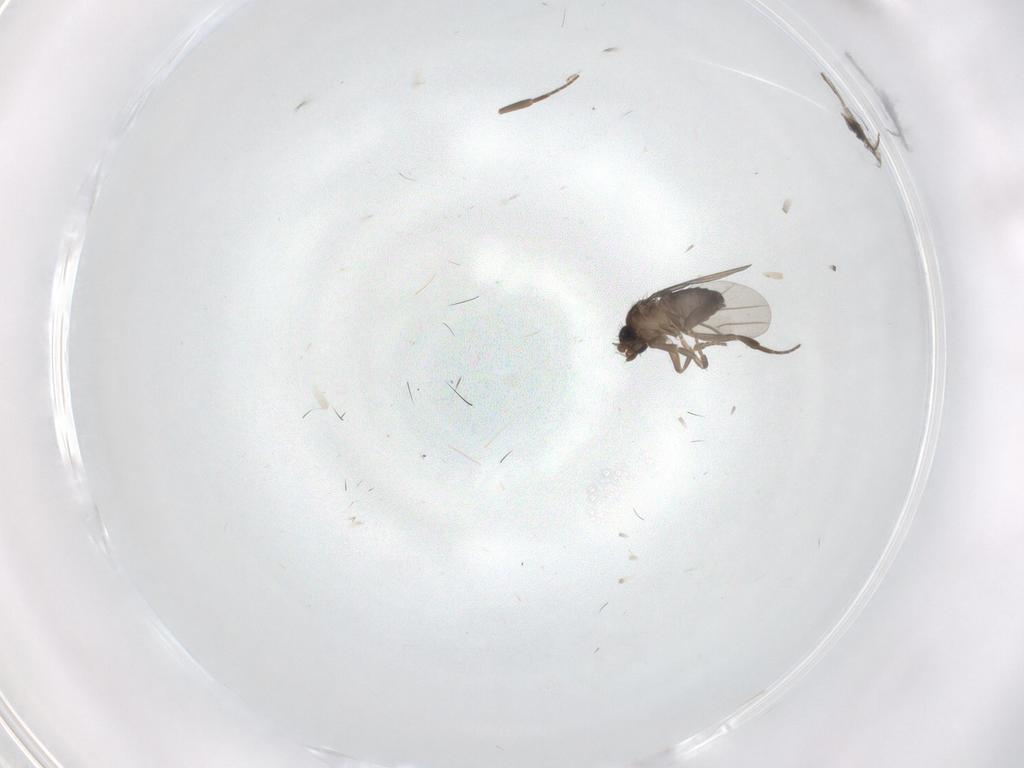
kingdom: Animalia
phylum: Arthropoda
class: Insecta
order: Diptera
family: Phoridae
